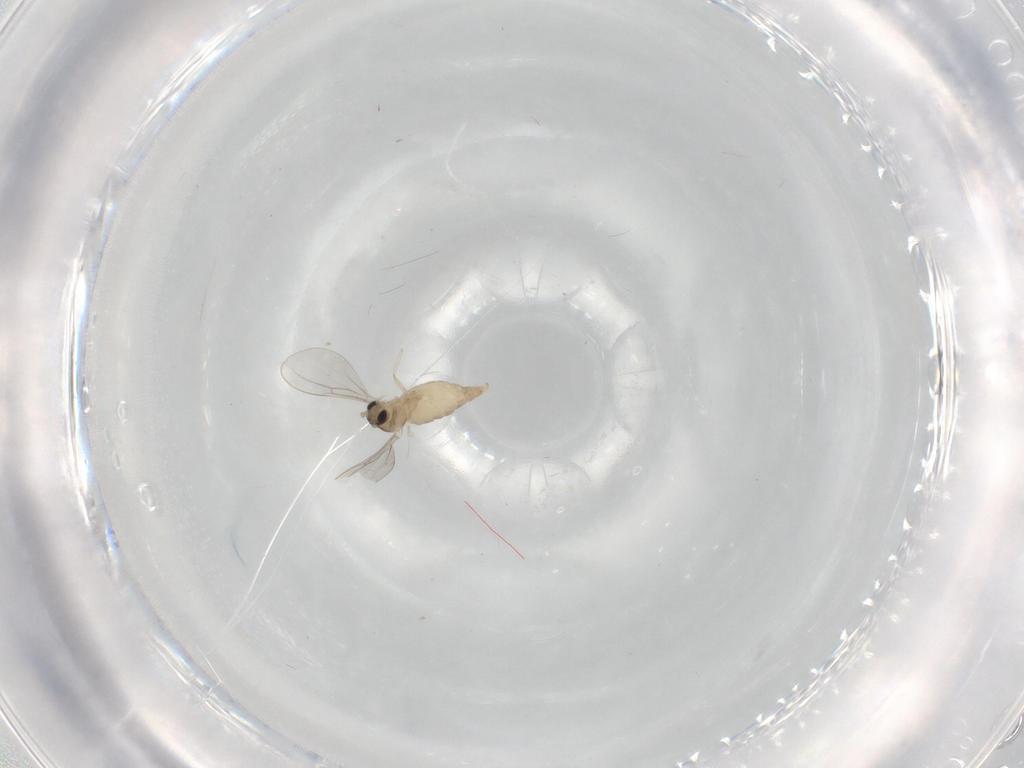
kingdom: Animalia
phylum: Arthropoda
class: Insecta
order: Diptera
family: Cecidomyiidae
